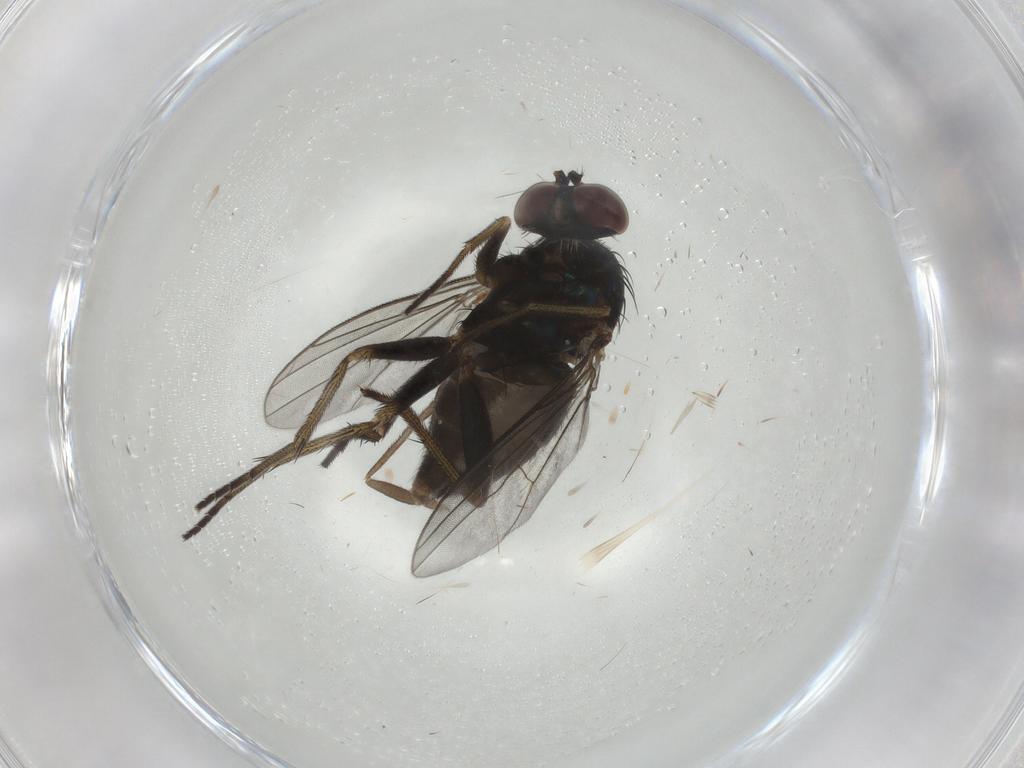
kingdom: Animalia
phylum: Arthropoda
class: Insecta
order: Diptera
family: Dolichopodidae
